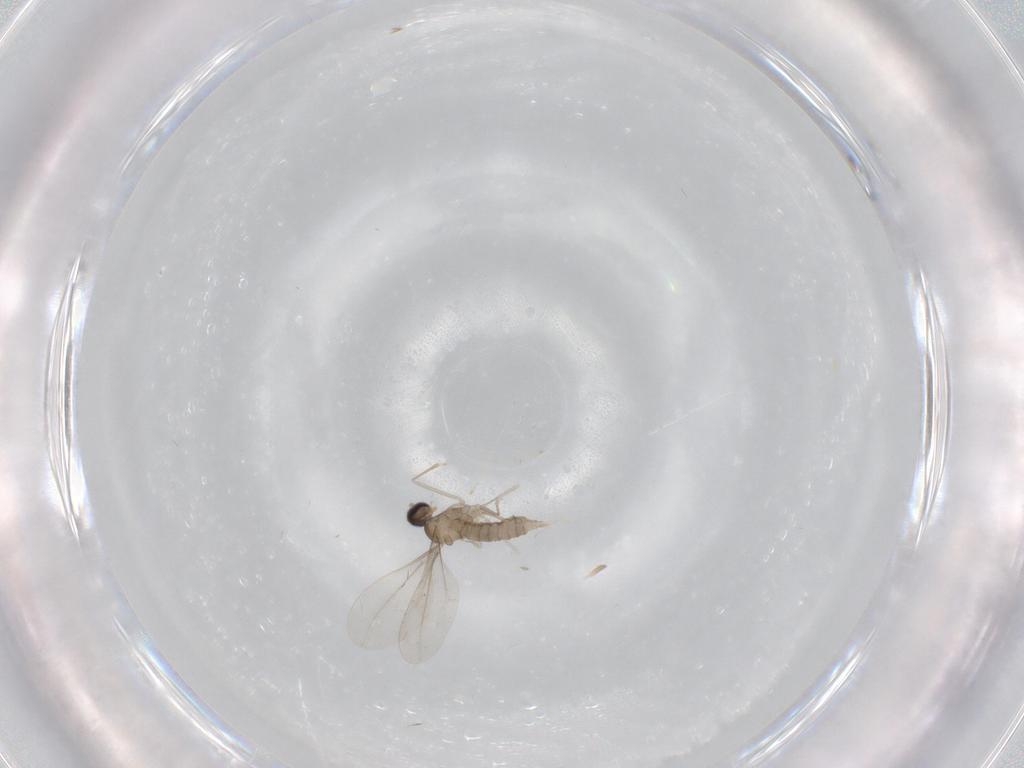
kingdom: Animalia
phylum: Arthropoda
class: Insecta
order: Diptera
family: Cecidomyiidae
